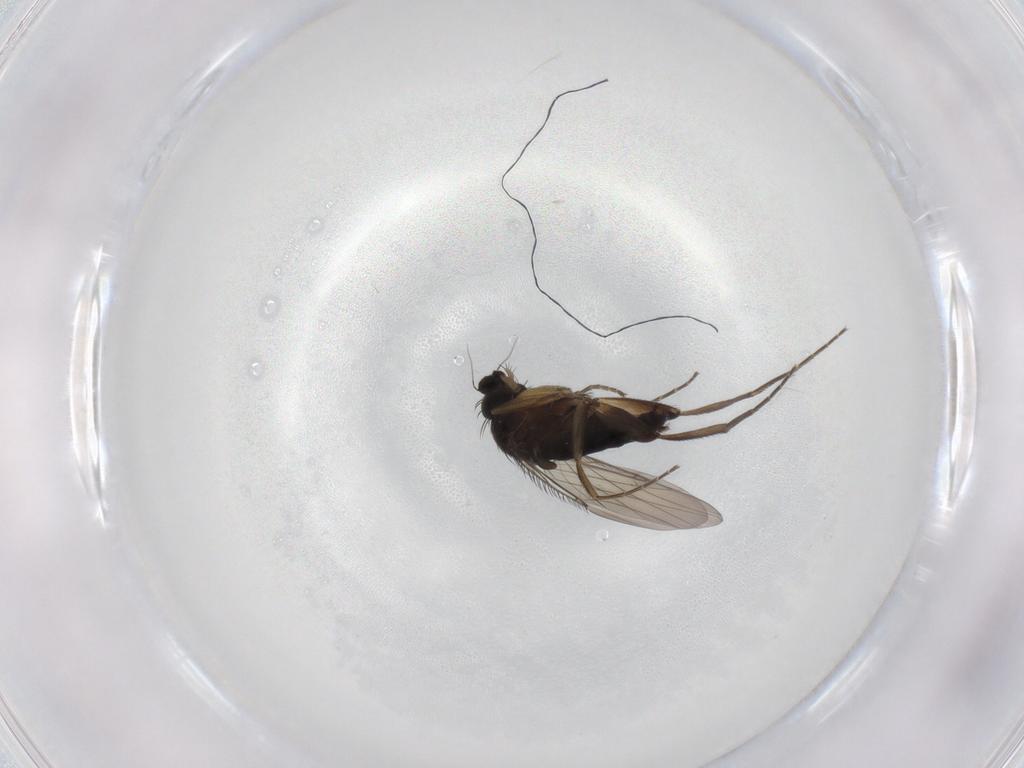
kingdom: Animalia
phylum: Arthropoda
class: Insecta
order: Diptera
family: Phoridae
